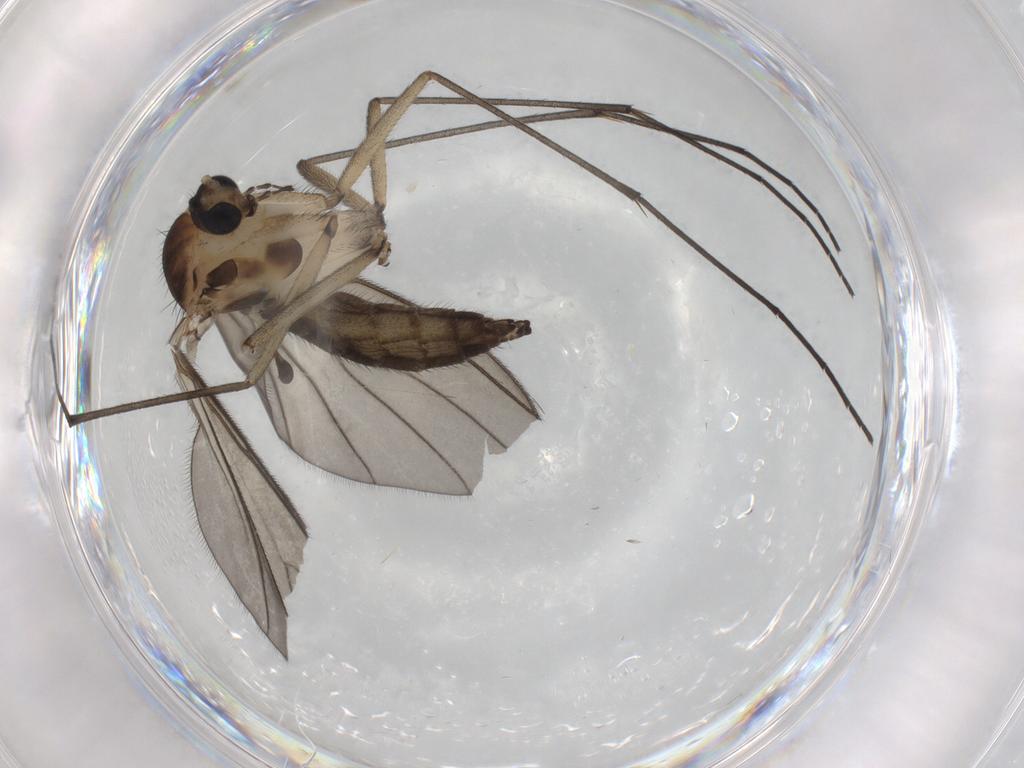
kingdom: Animalia
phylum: Arthropoda
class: Insecta
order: Diptera
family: Sciaridae
